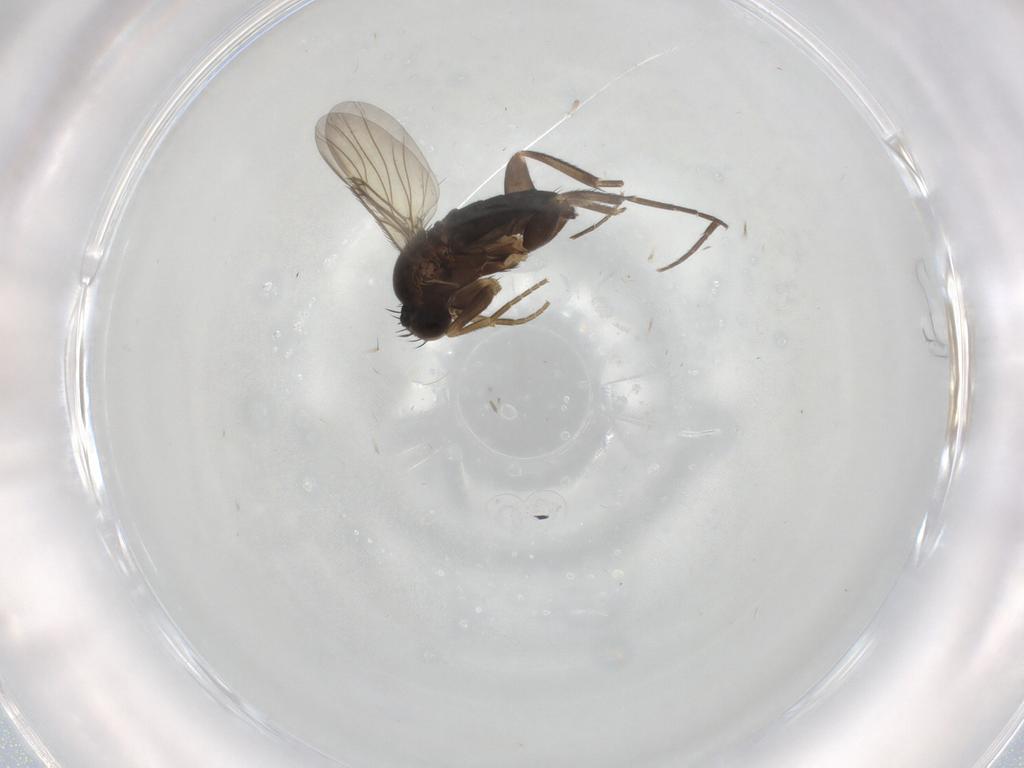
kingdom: Animalia
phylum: Arthropoda
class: Insecta
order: Diptera
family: Phoridae
